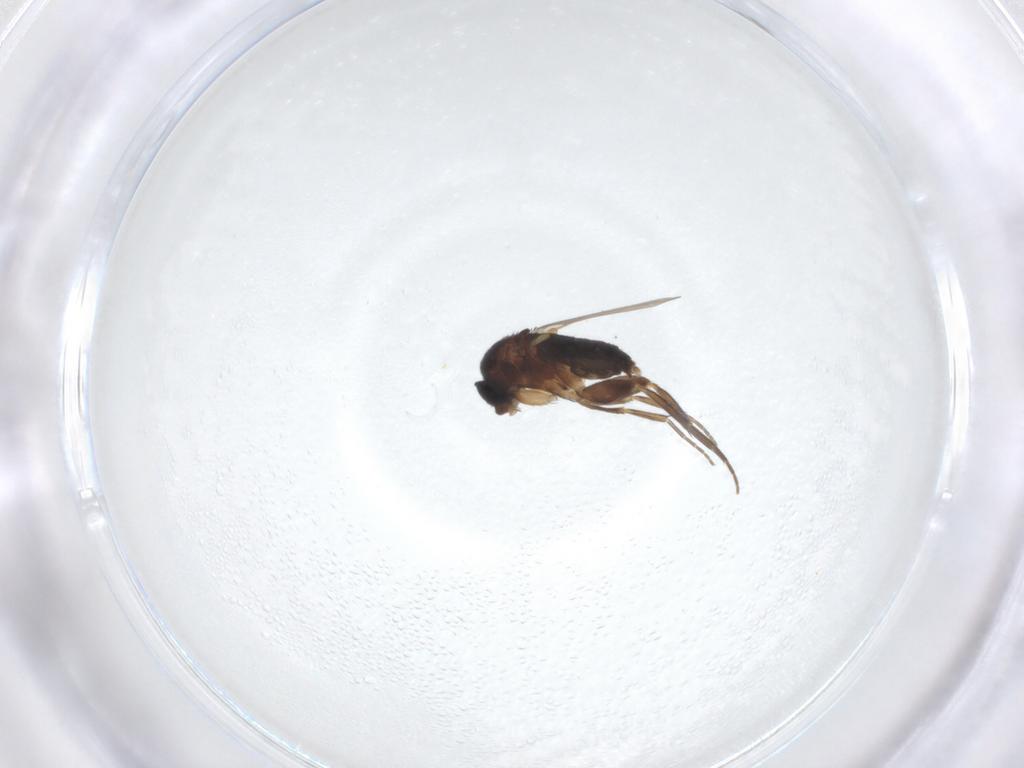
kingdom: Animalia
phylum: Arthropoda
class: Insecta
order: Diptera
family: Phoridae
